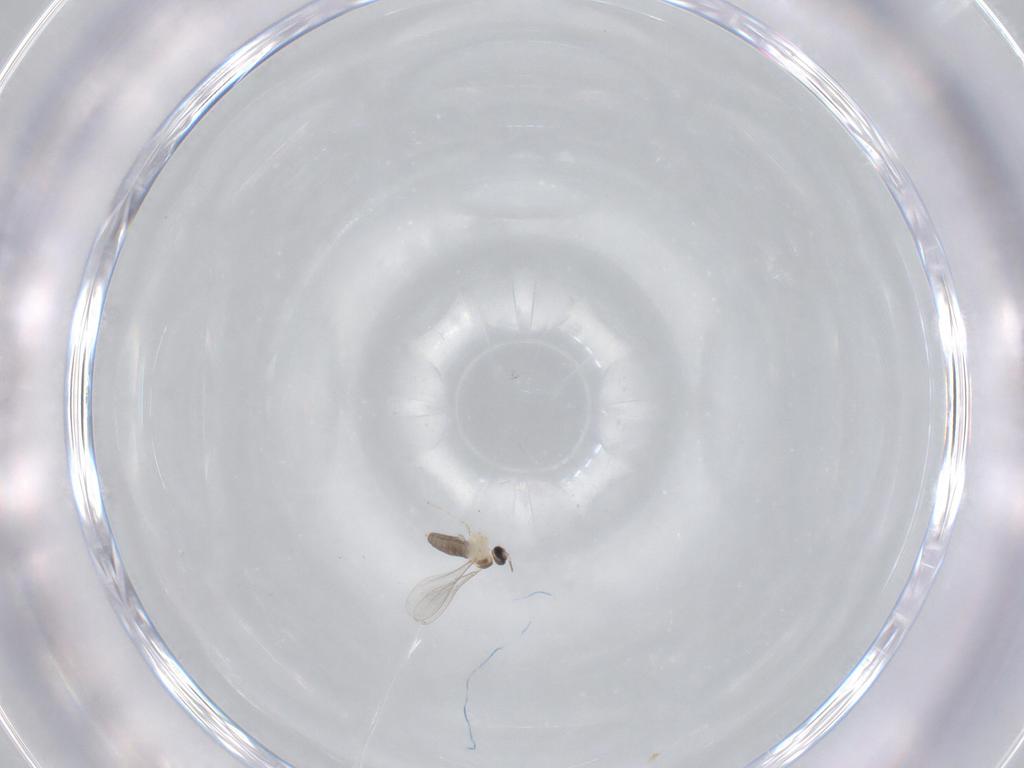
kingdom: Animalia
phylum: Arthropoda
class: Insecta
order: Diptera
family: Cecidomyiidae
